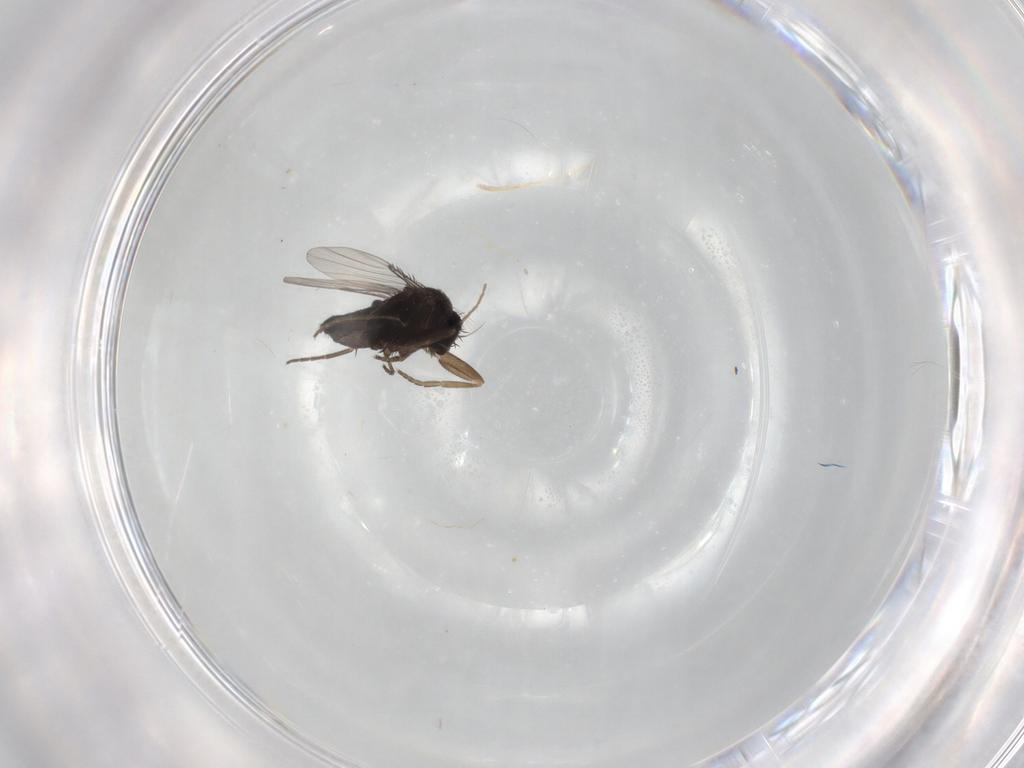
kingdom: Animalia
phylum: Arthropoda
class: Insecta
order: Diptera
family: Phoridae
